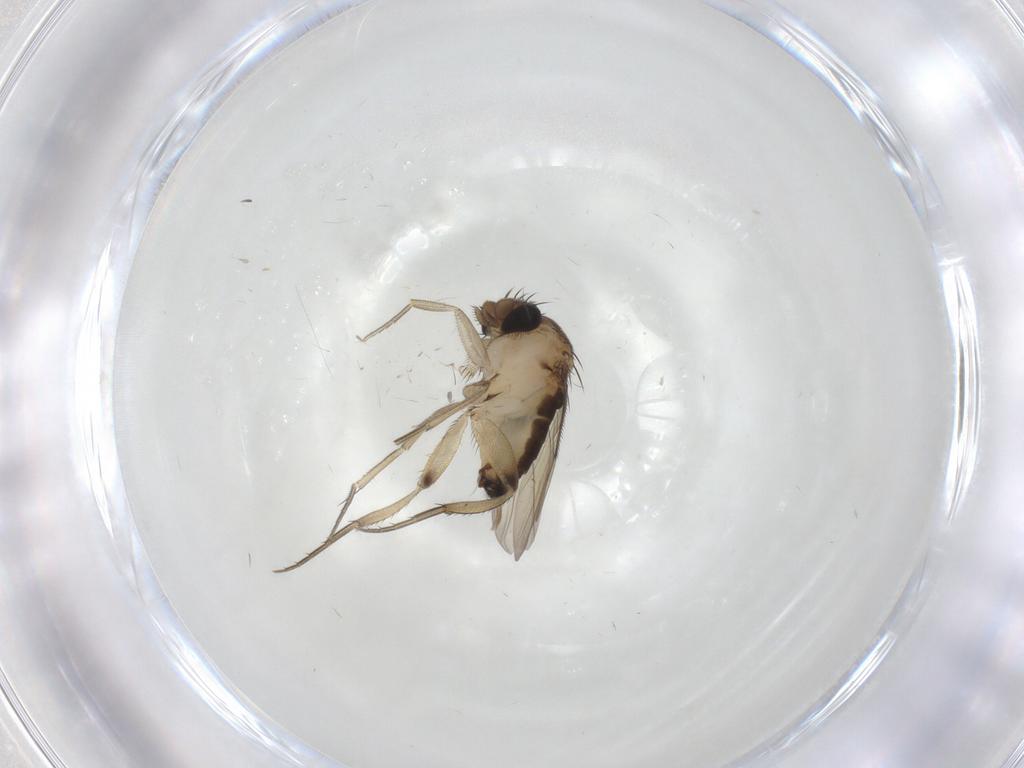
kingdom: Animalia
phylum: Arthropoda
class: Insecta
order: Diptera
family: Phoridae
